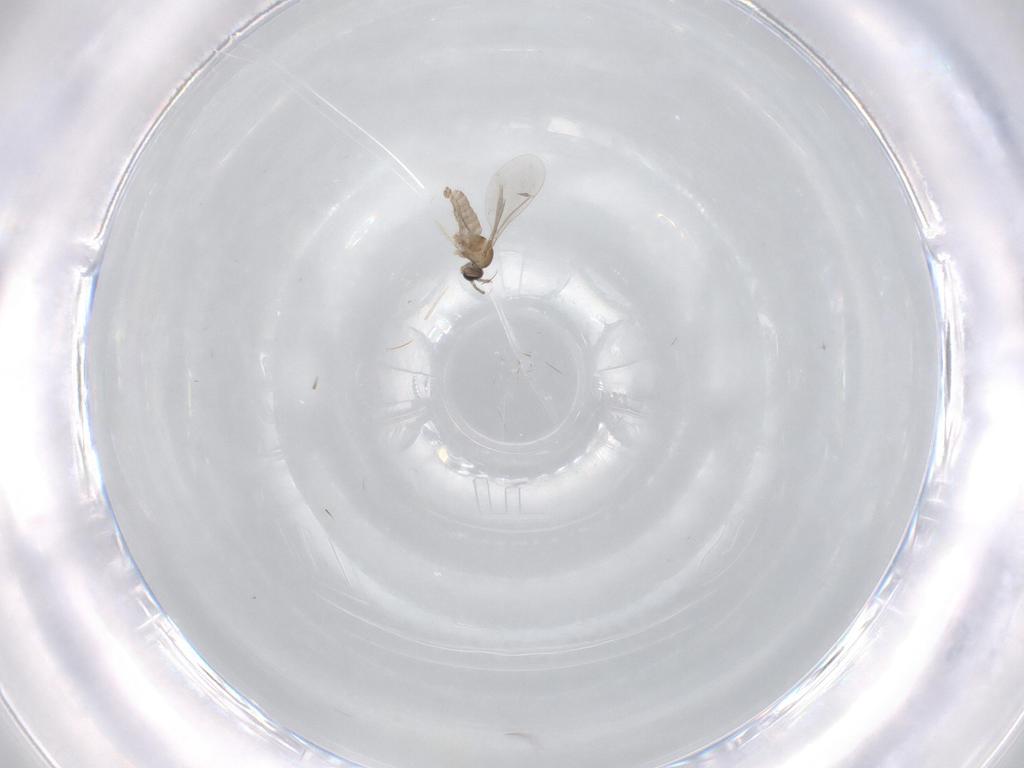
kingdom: Animalia
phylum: Arthropoda
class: Insecta
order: Diptera
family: Cecidomyiidae
